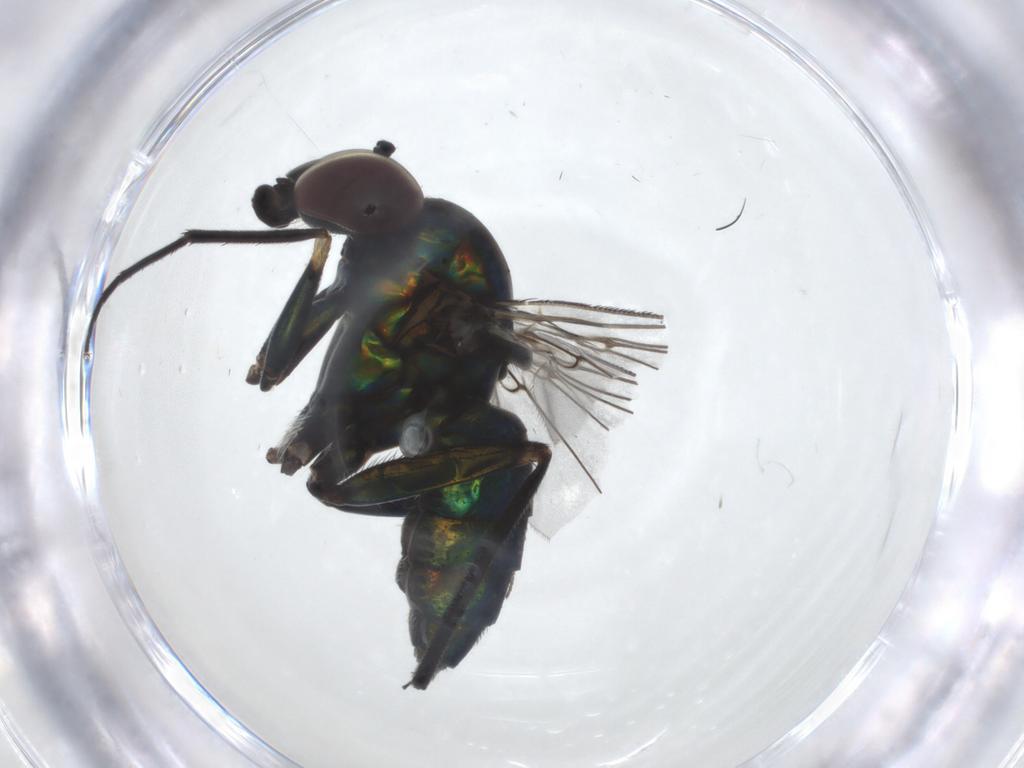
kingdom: Animalia
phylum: Arthropoda
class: Insecta
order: Diptera
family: Dolichopodidae
